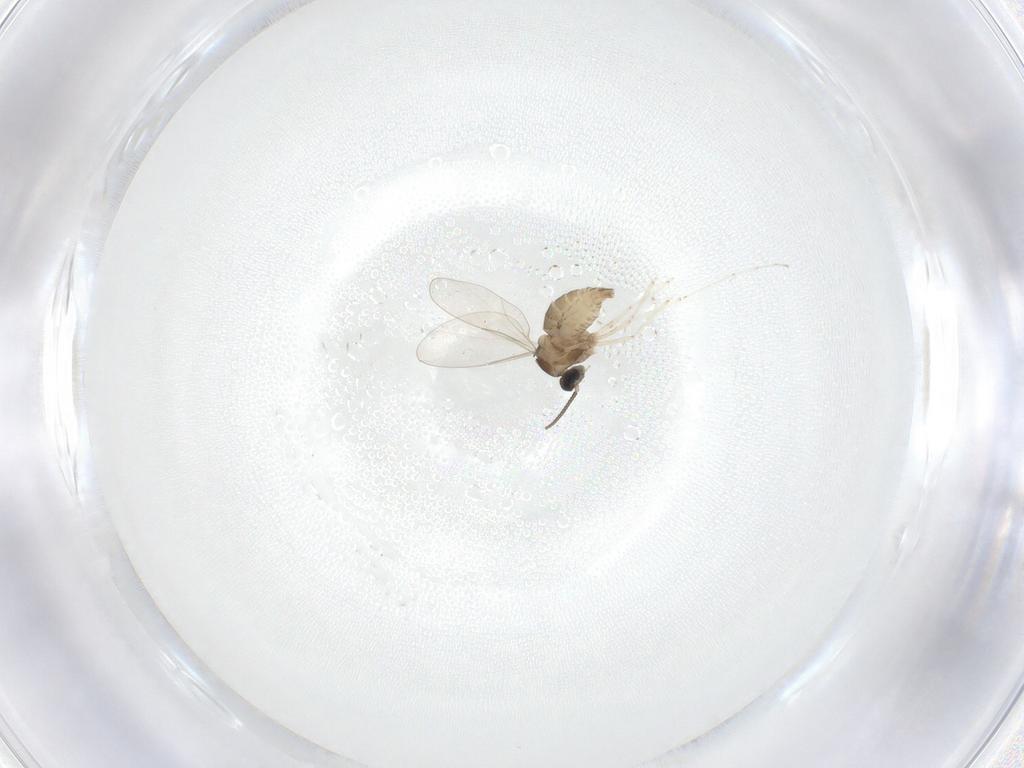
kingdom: Animalia
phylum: Arthropoda
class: Insecta
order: Diptera
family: Cecidomyiidae
